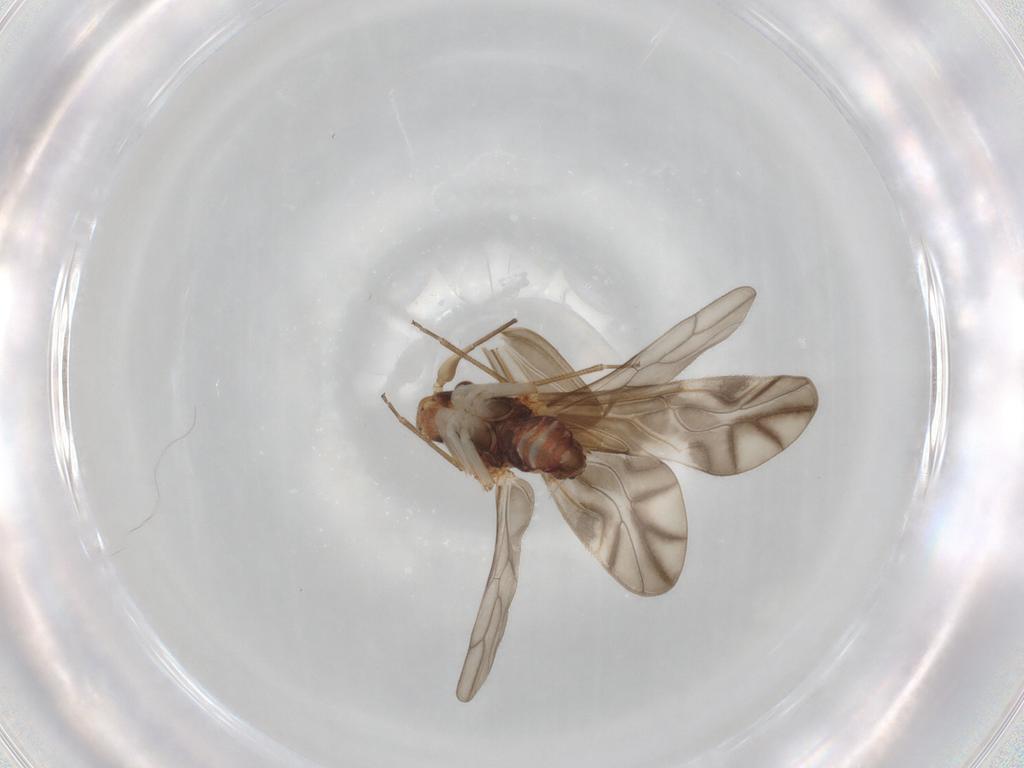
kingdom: Animalia
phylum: Arthropoda
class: Insecta
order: Psocodea
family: Caeciliusidae
